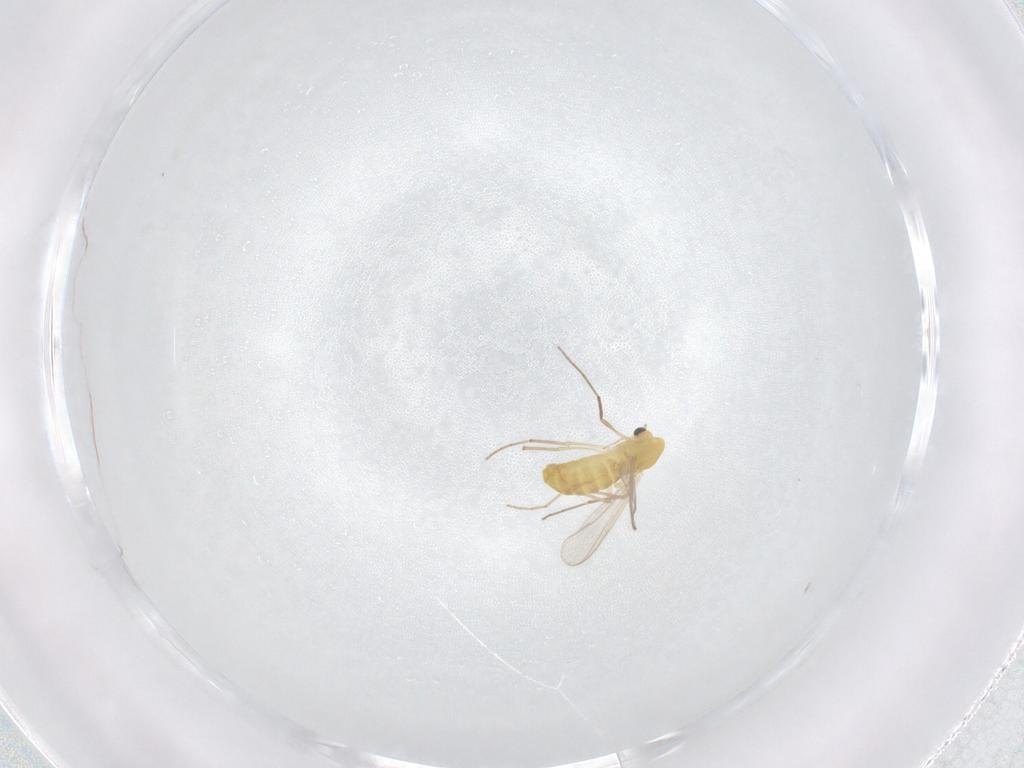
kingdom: Animalia
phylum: Arthropoda
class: Insecta
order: Diptera
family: Chironomidae
